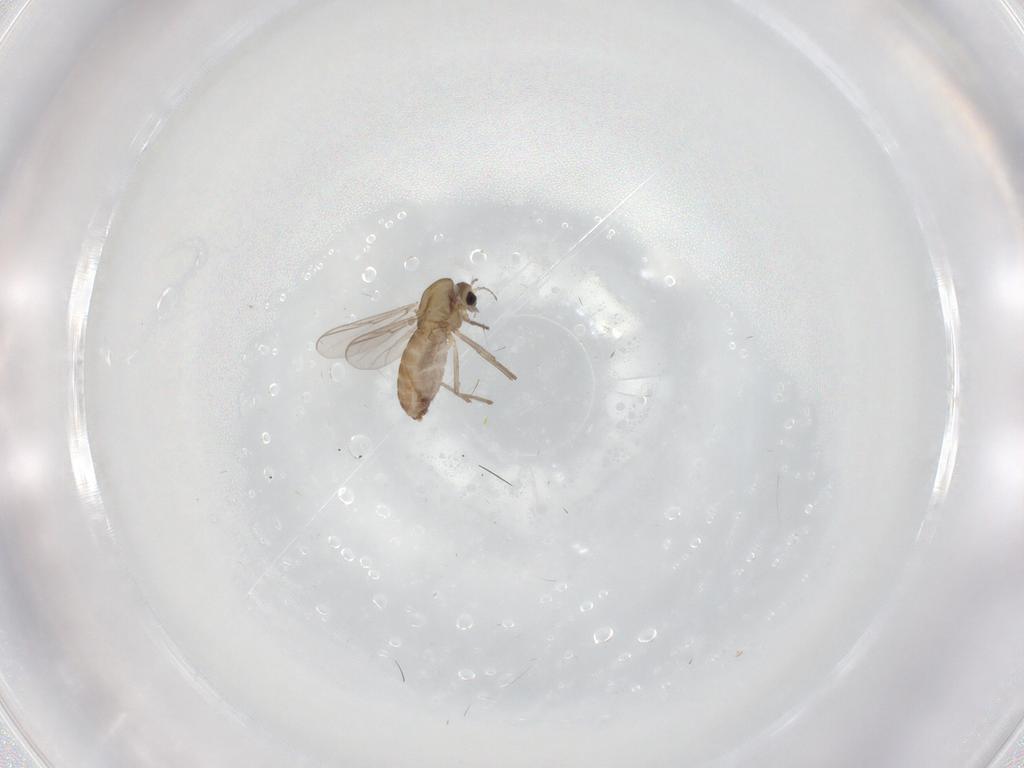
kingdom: Animalia
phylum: Arthropoda
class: Insecta
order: Diptera
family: Chironomidae
